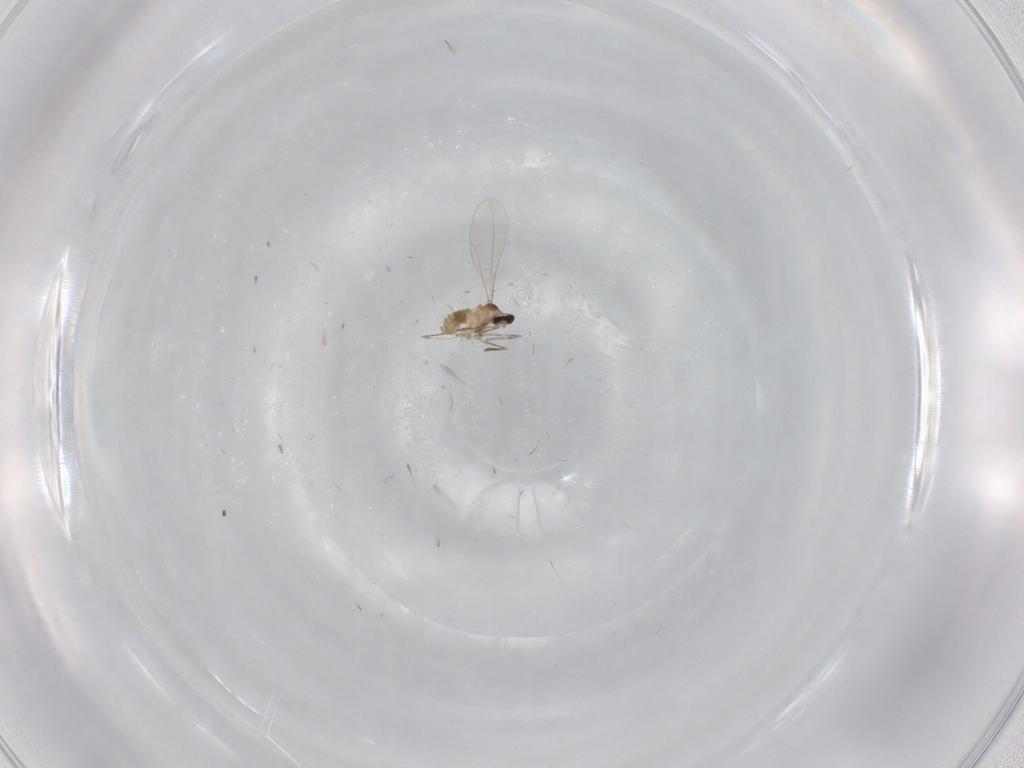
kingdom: Animalia
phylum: Arthropoda
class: Insecta
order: Diptera
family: Cecidomyiidae
